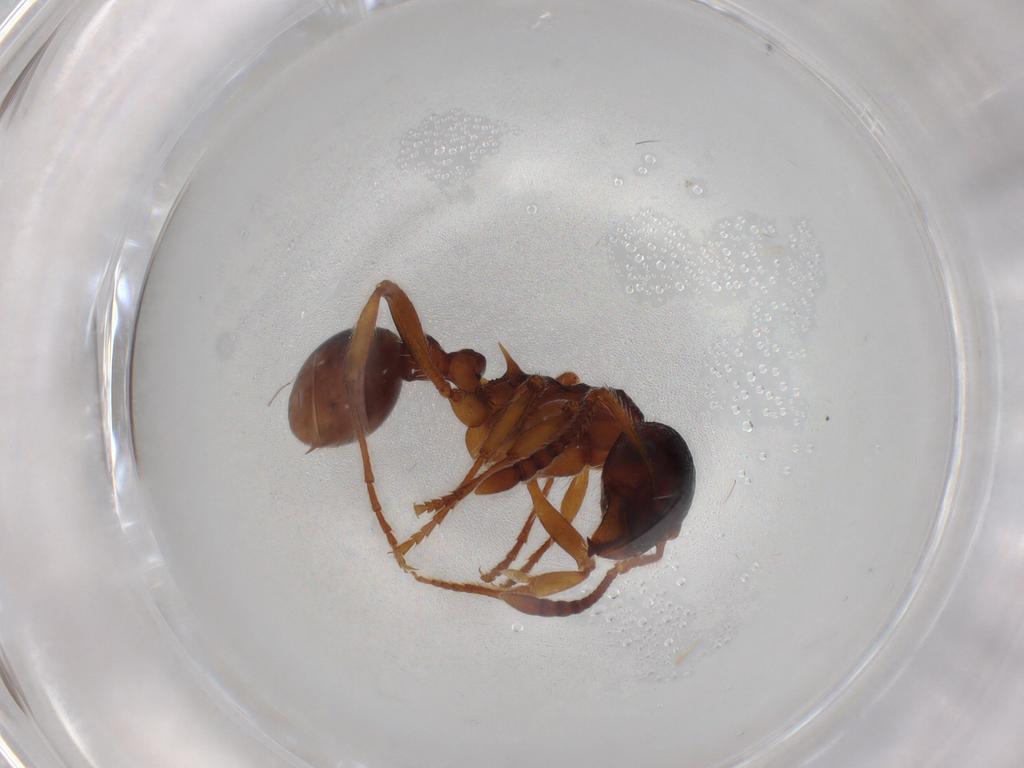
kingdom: Animalia
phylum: Arthropoda
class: Insecta
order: Hymenoptera
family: Formicidae
